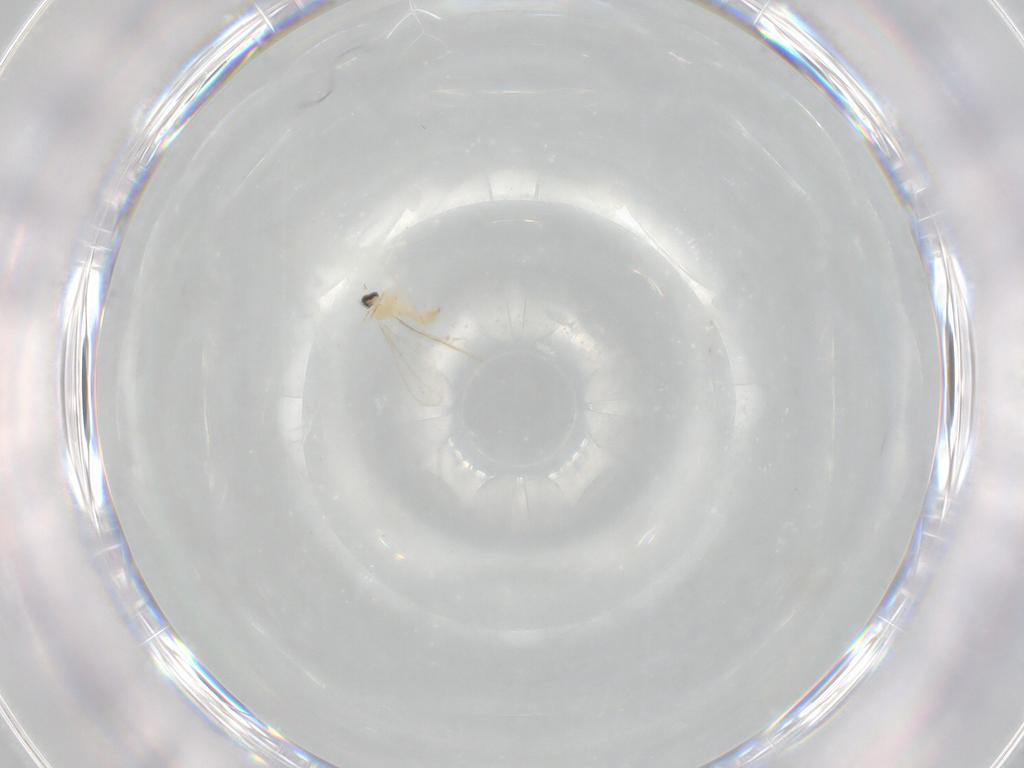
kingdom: Animalia
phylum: Arthropoda
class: Insecta
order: Diptera
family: Cecidomyiidae
